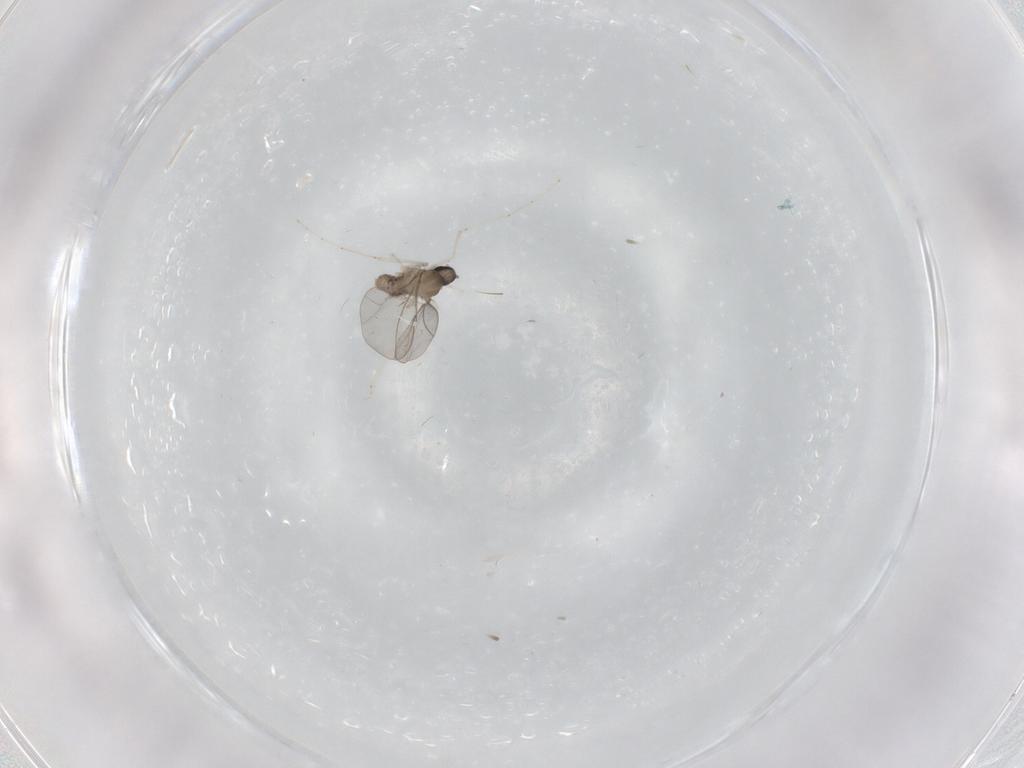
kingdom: Animalia
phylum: Arthropoda
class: Insecta
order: Diptera
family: Cecidomyiidae
